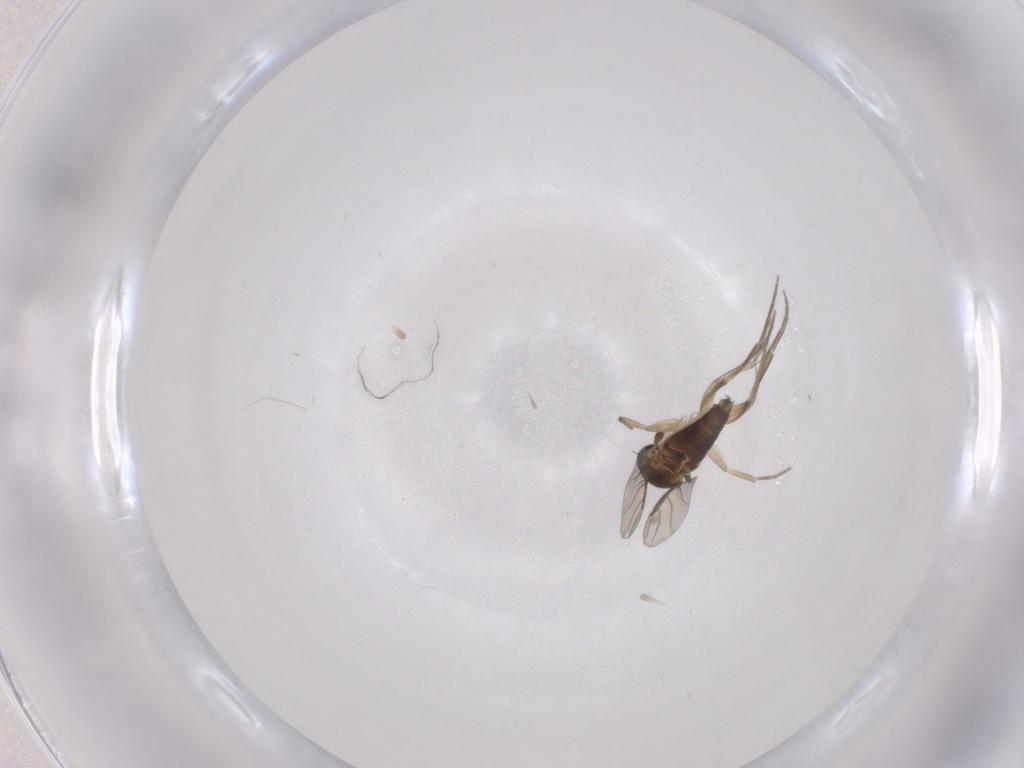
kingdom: Animalia
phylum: Arthropoda
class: Insecta
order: Diptera
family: Phoridae
